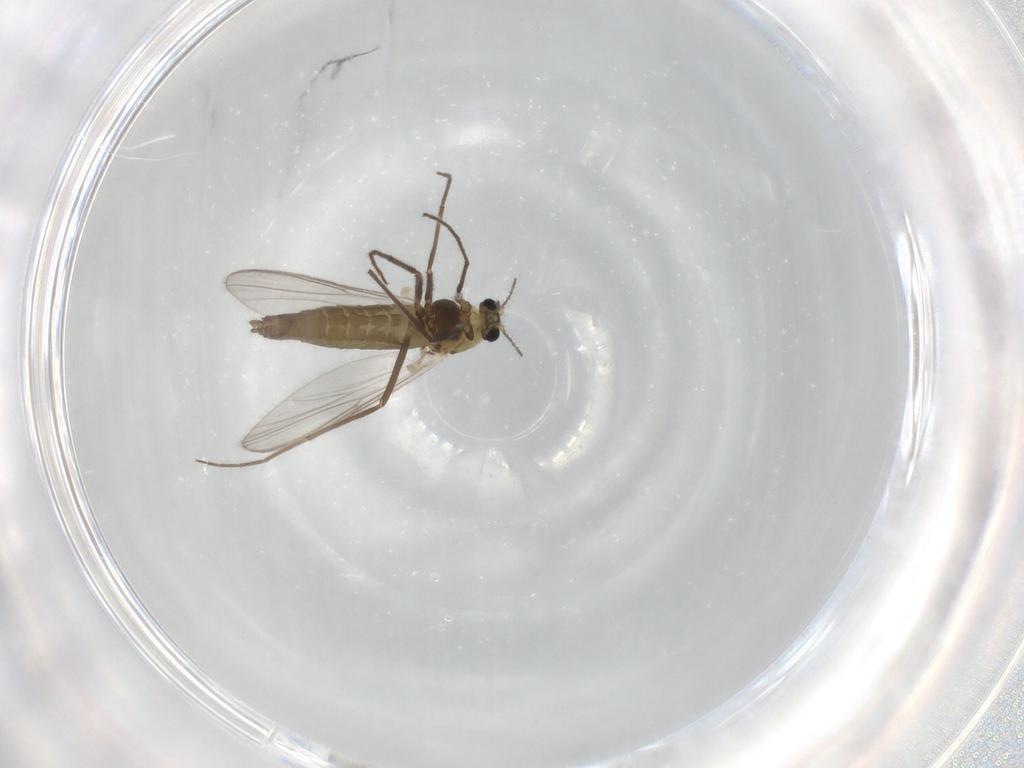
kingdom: Animalia
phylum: Arthropoda
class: Insecta
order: Diptera
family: Chironomidae
